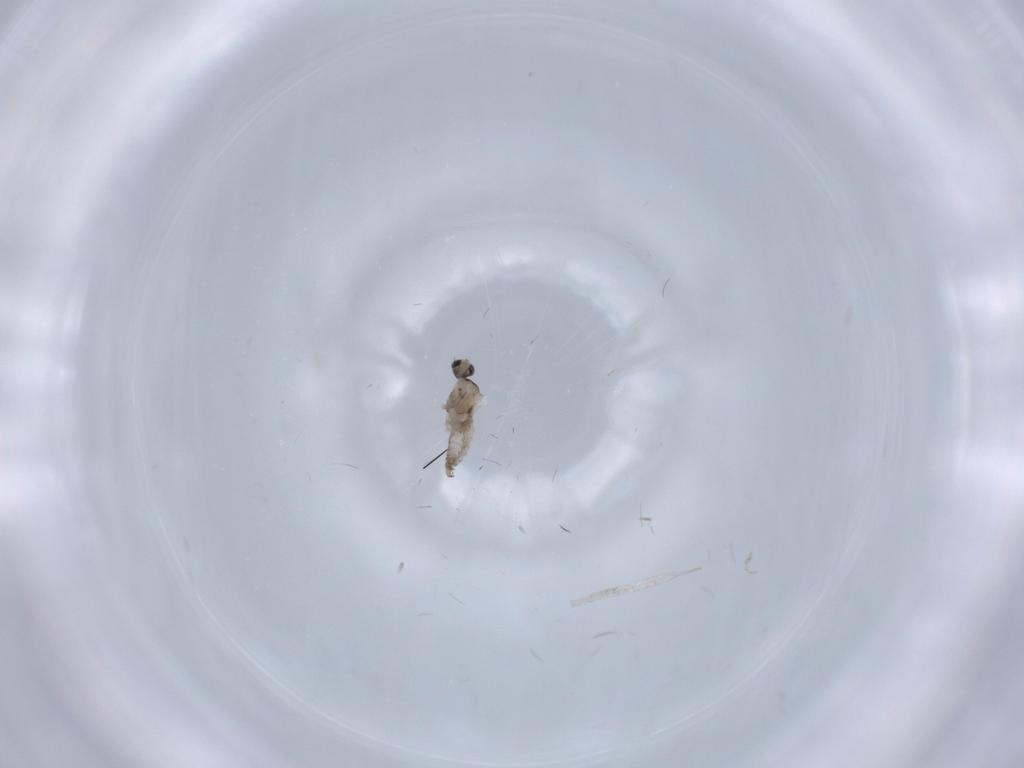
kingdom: Animalia
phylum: Arthropoda
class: Insecta
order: Diptera
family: Cecidomyiidae
